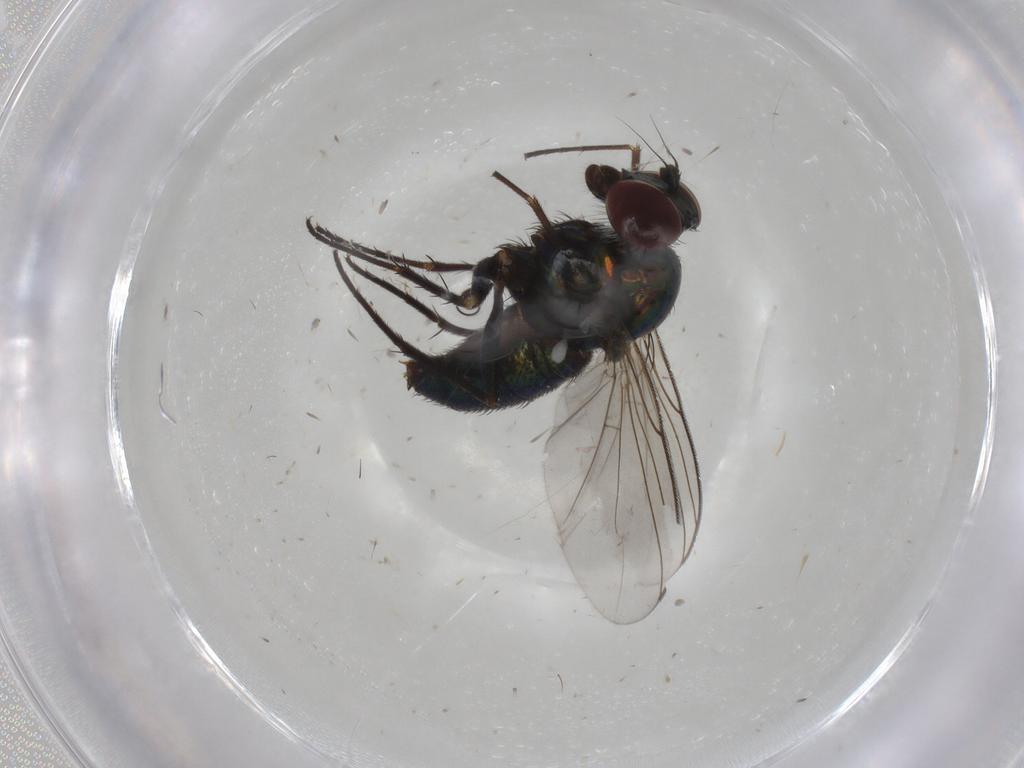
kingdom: Animalia
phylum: Arthropoda
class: Insecta
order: Diptera
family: Dolichopodidae
